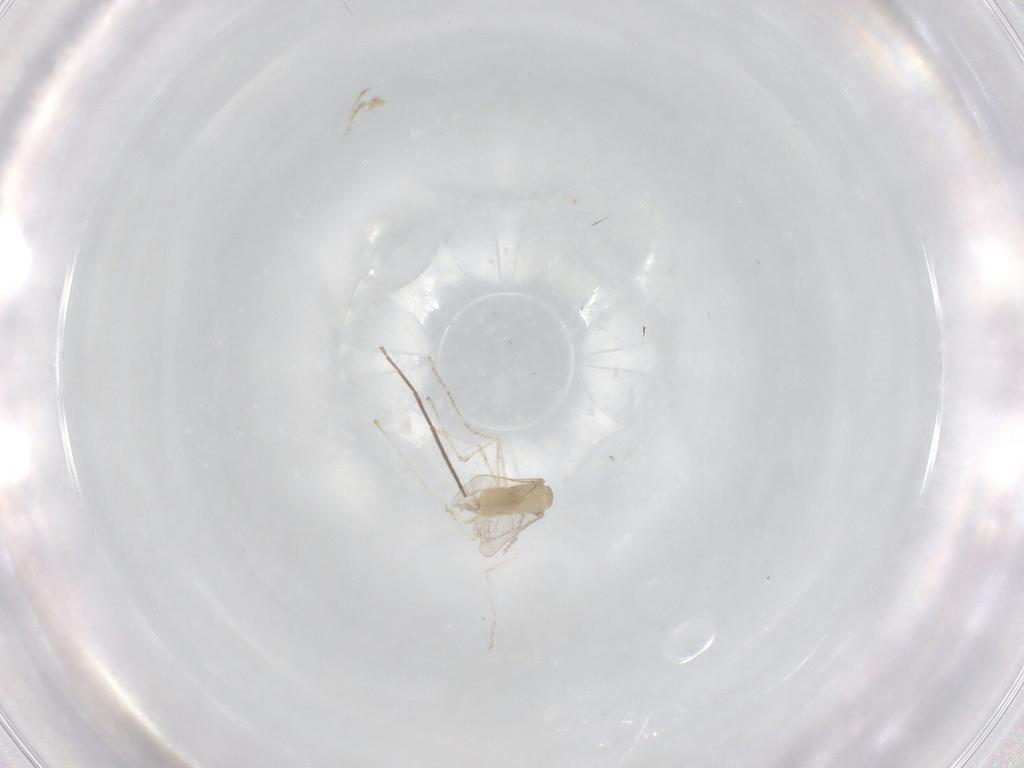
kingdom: Animalia
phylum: Arthropoda
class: Insecta
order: Diptera
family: Cecidomyiidae
